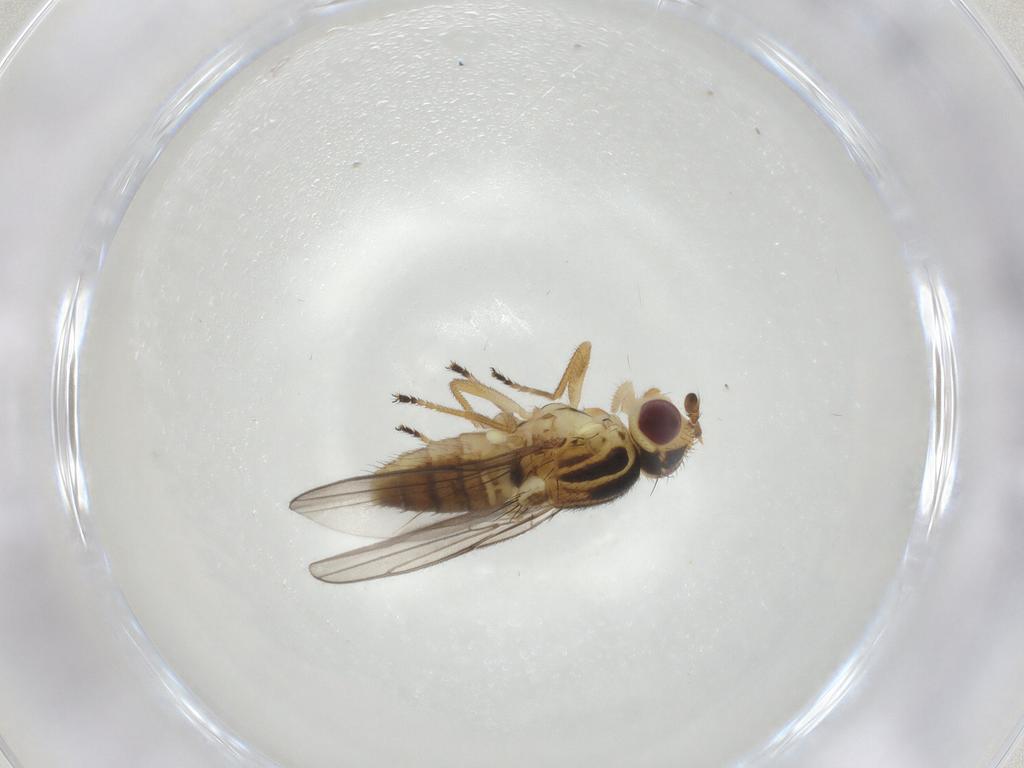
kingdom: Animalia
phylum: Arthropoda
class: Insecta
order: Diptera
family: Chloropidae
